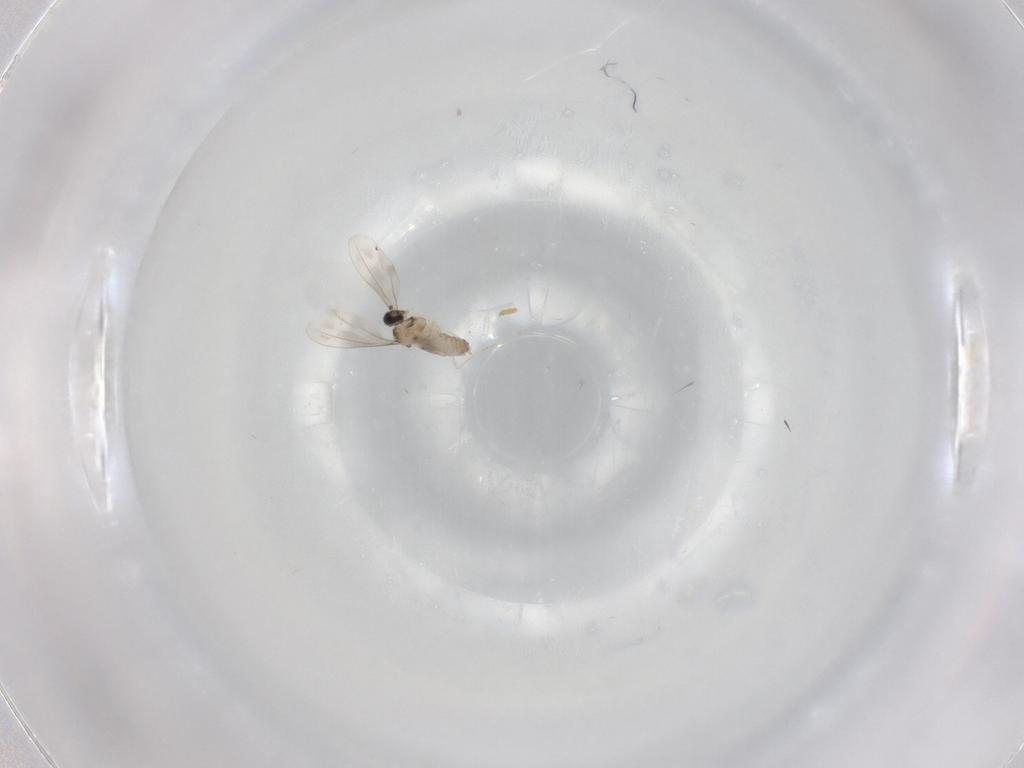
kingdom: Animalia
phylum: Arthropoda
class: Insecta
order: Diptera
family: Cecidomyiidae
